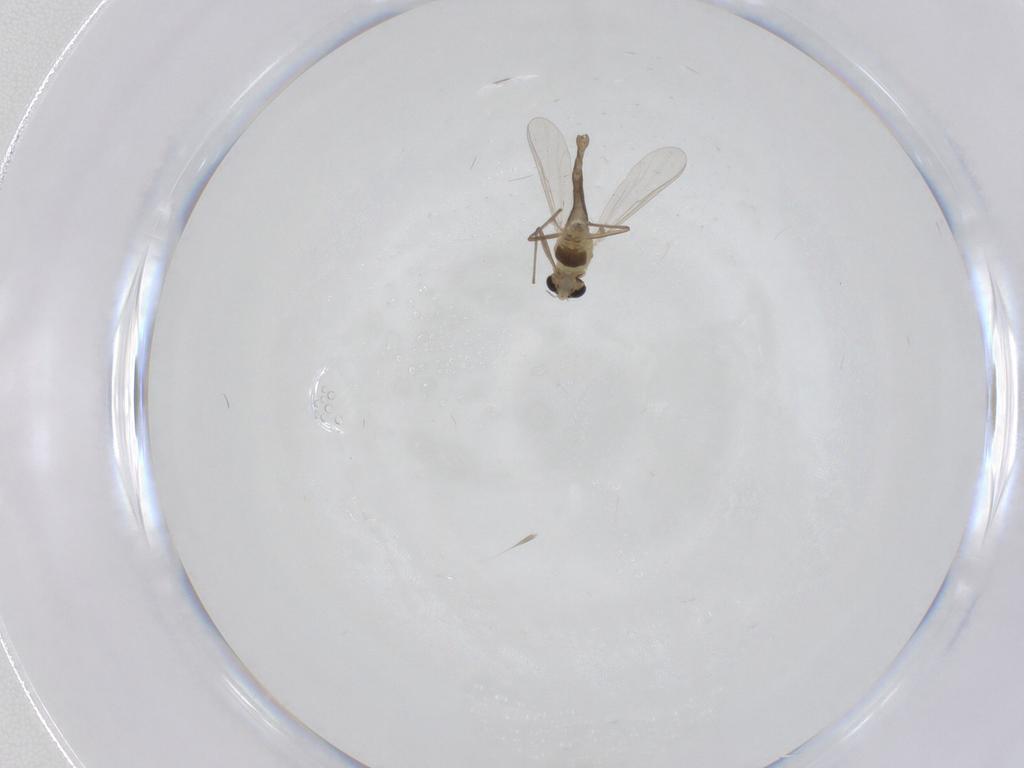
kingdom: Animalia
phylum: Arthropoda
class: Insecta
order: Diptera
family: Chironomidae
